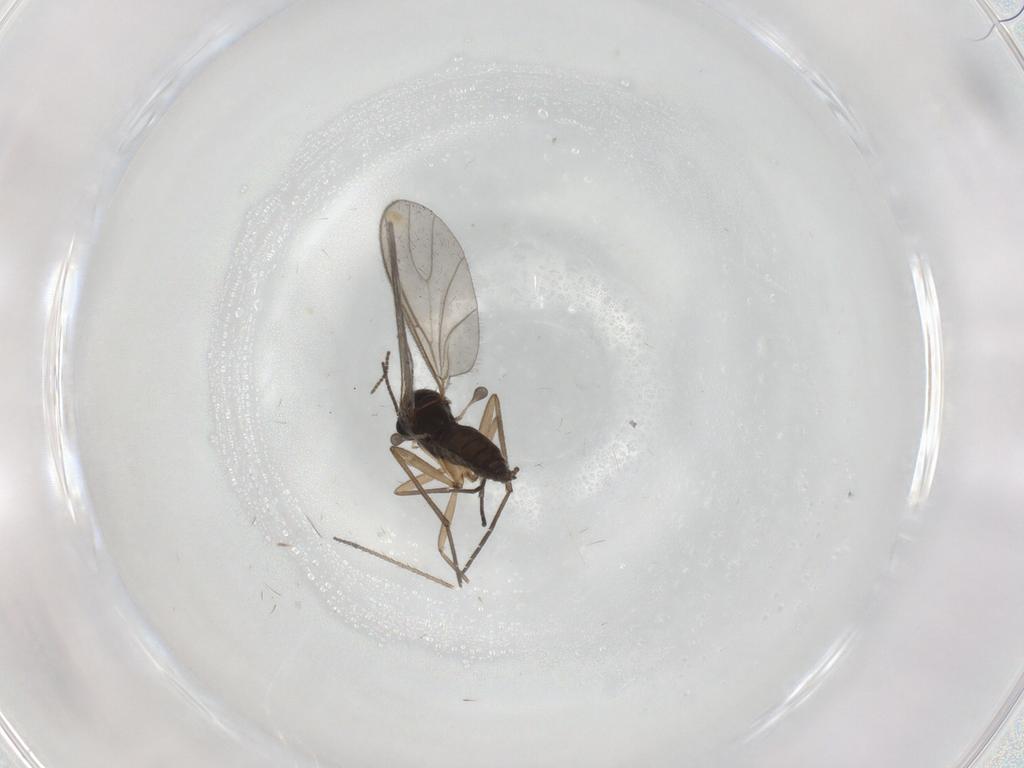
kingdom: Animalia
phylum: Arthropoda
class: Insecta
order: Diptera
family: Sciaridae
